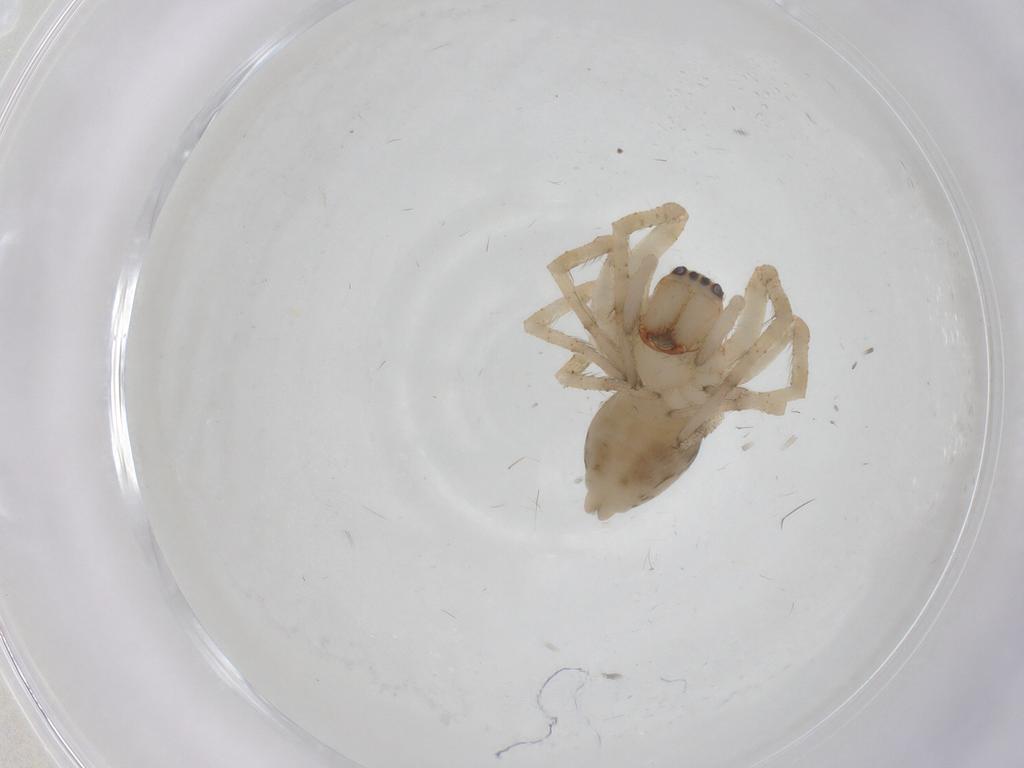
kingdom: Animalia
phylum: Arthropoda
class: Arachnida
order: Araneae
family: Desidae
